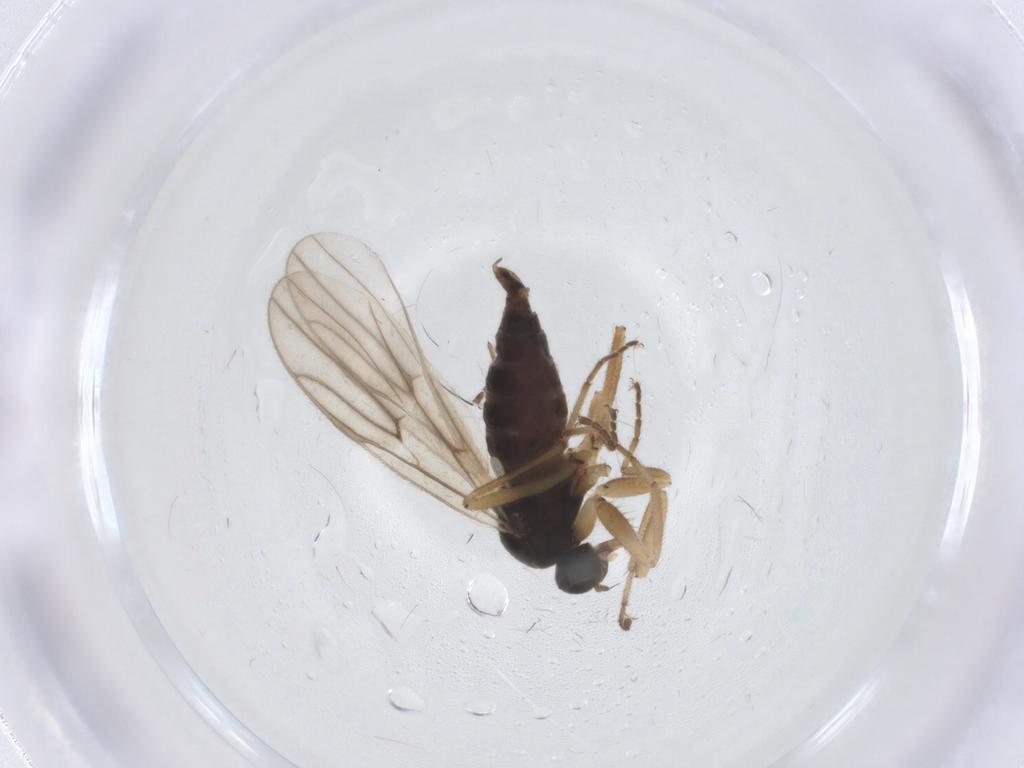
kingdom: Animalia
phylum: Arthropoda
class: Insecta
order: Diptera
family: Hybotidae
